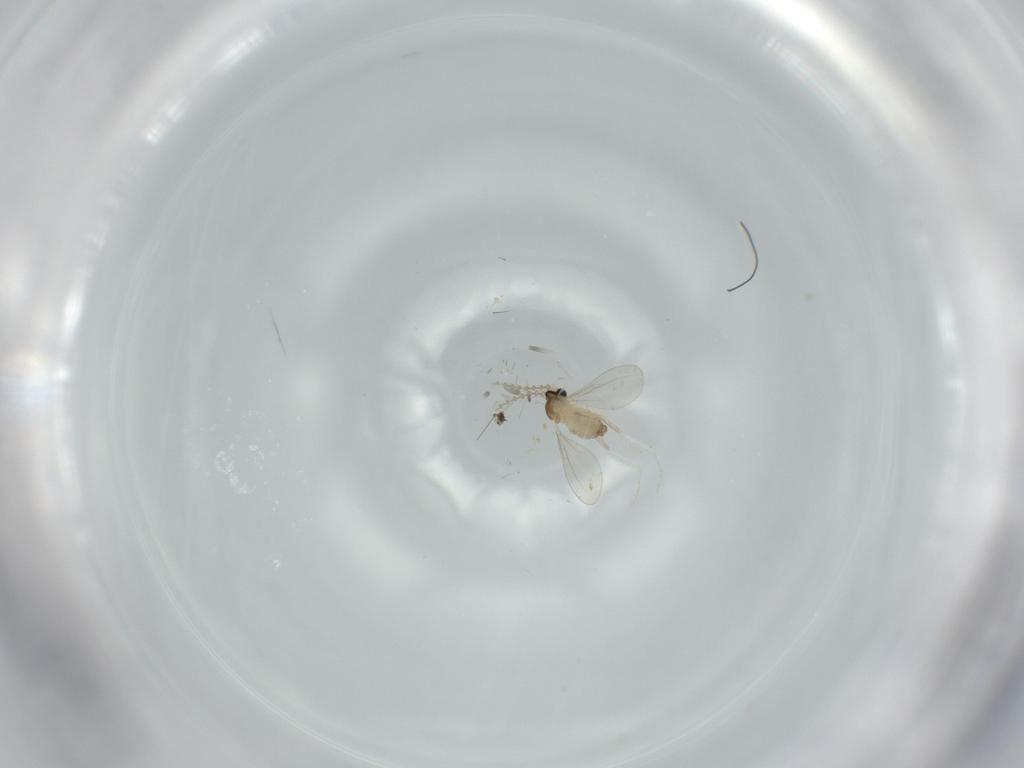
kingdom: Animalia
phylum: Arthropoda
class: Insecta
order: Diptera
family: Cecidomyiidae
